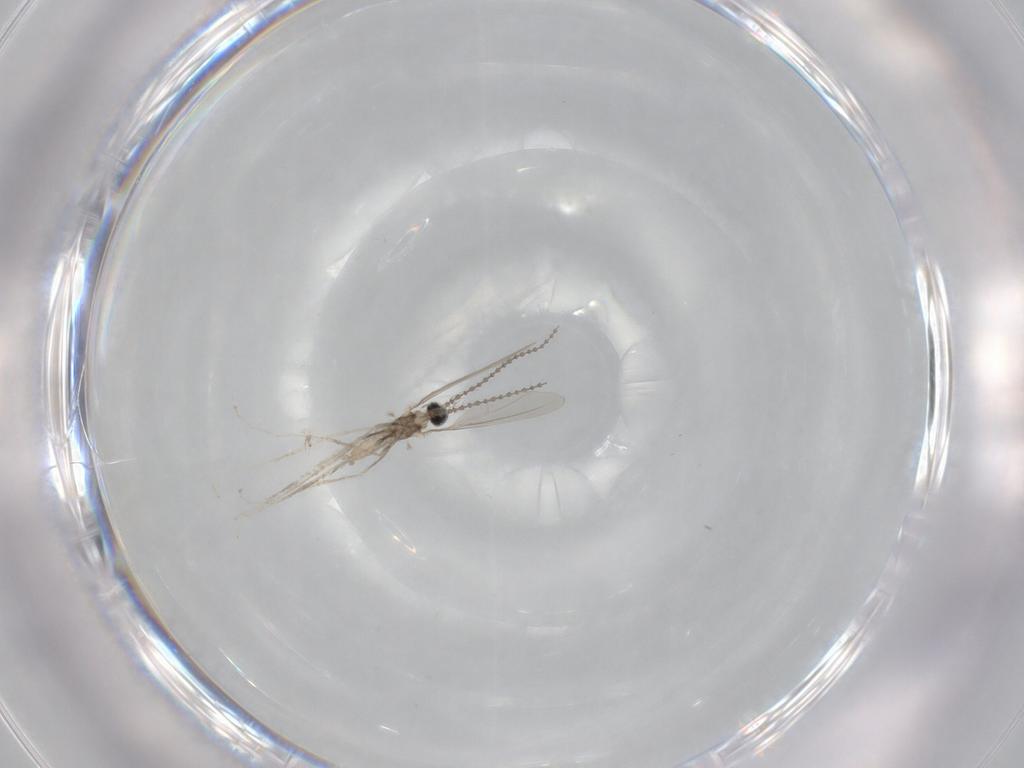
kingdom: Animalia
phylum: Arthropoda
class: Insecta
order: Diptera
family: Cecidomyiidae
